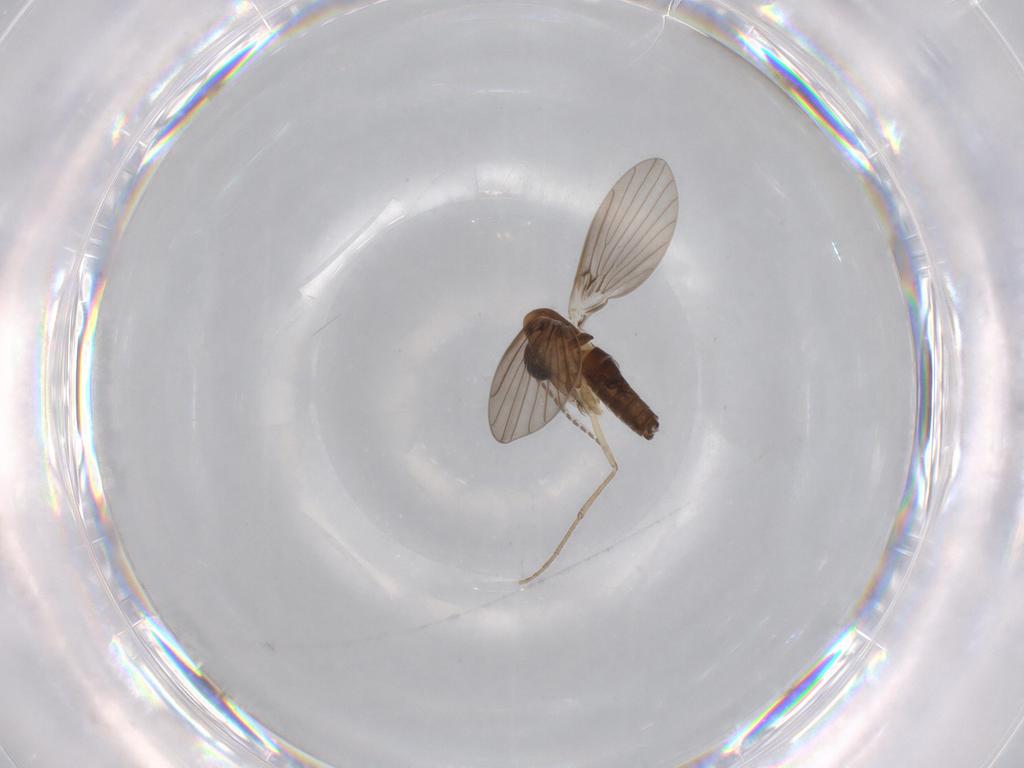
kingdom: Animalia
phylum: Arthropoda
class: Insecta
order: Diptera
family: Psychodidae
